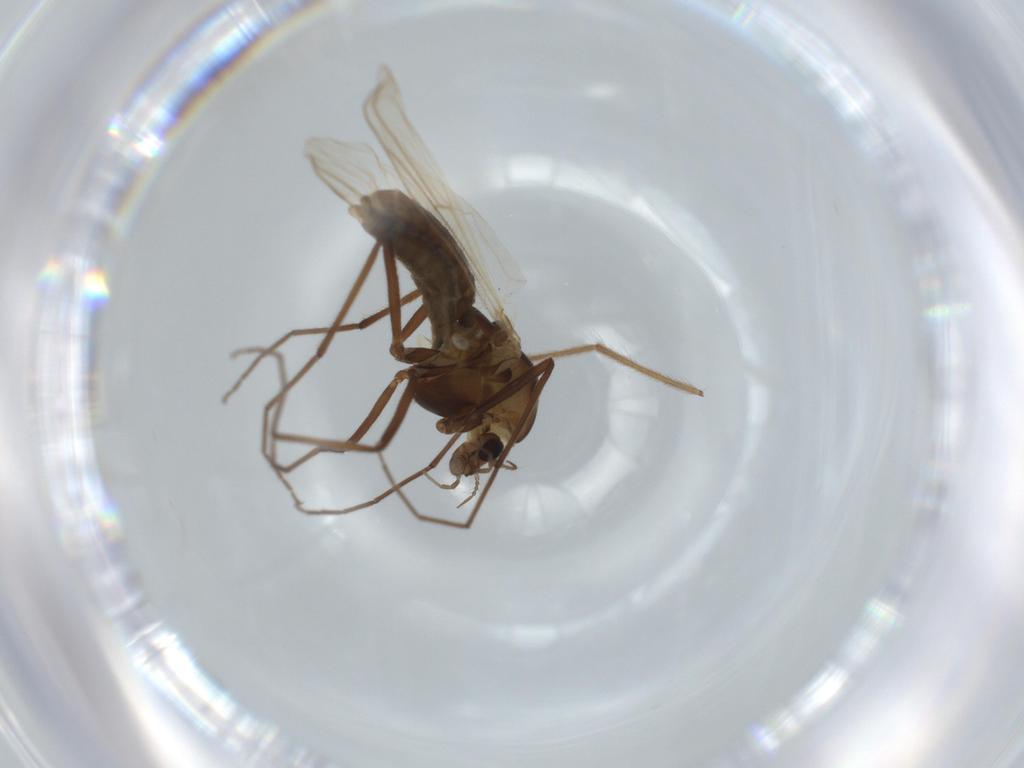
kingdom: Animalia
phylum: Arthropoda
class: Insecta
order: Diptera
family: Chironomidae
